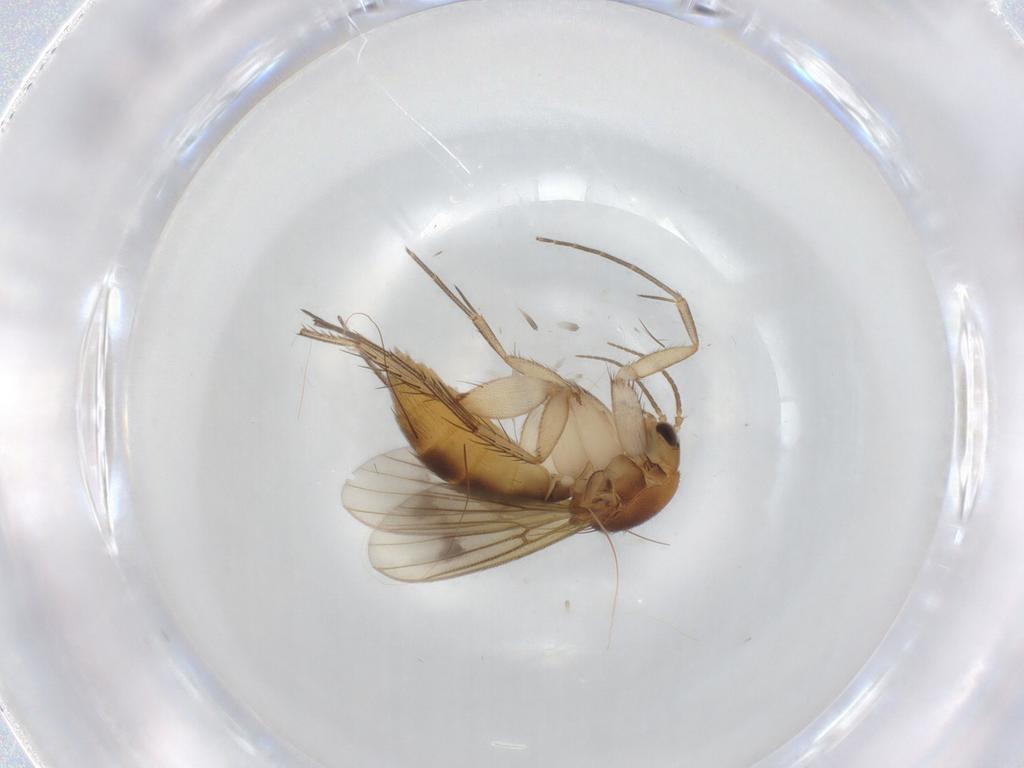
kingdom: Animalia
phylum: Arthropoda
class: Insecta
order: Diptera
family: Mycetophilidae
